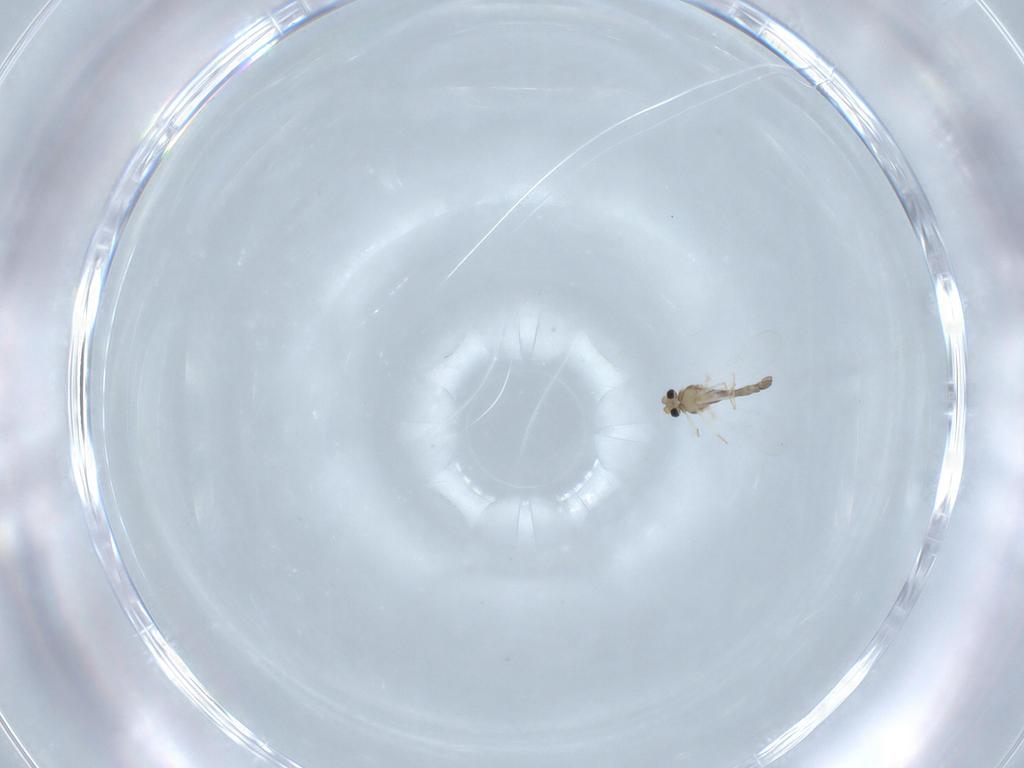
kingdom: Animalia
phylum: Arthropoda
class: Insecta
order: Diptera
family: Chironomidae
